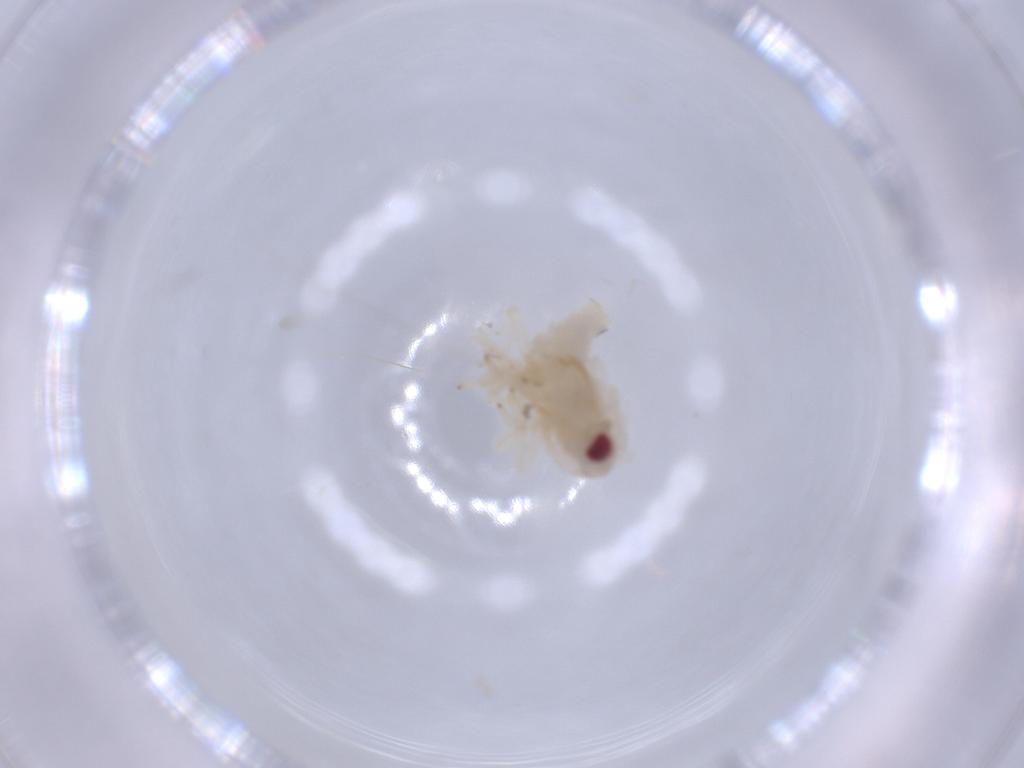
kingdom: Animalia
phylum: Arthropoda
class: Insecta
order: Hemiptera
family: Nogodinidae
